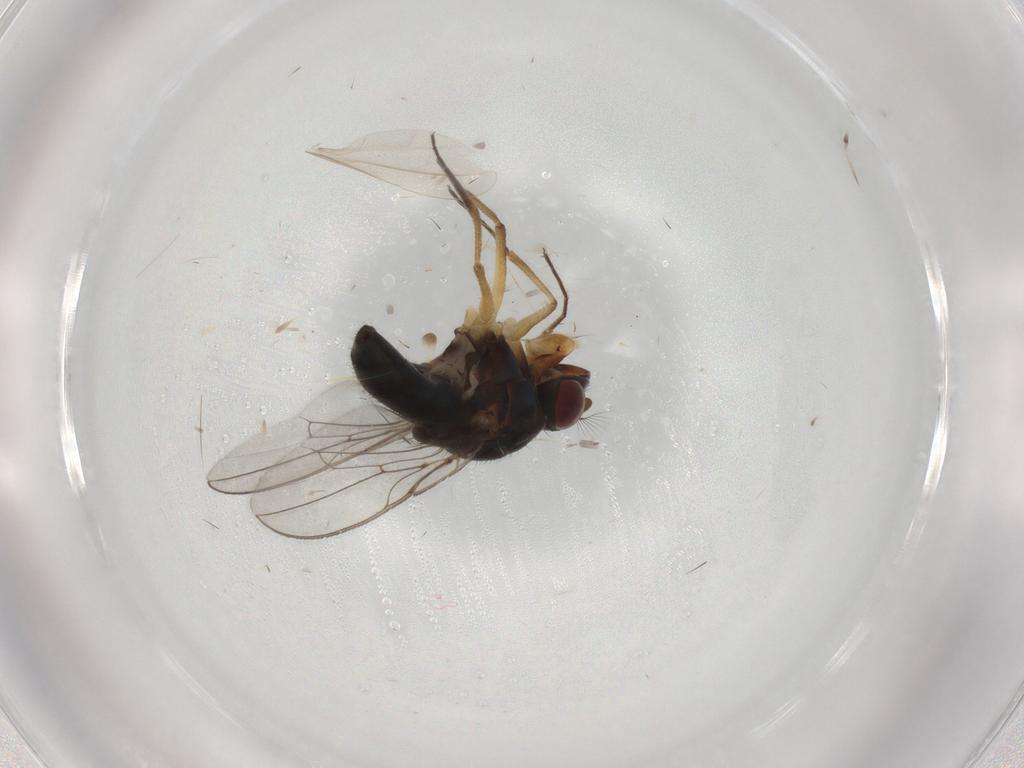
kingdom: Animalia
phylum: Arthropoda
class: Insecta
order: Diptera
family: Ephydridae
